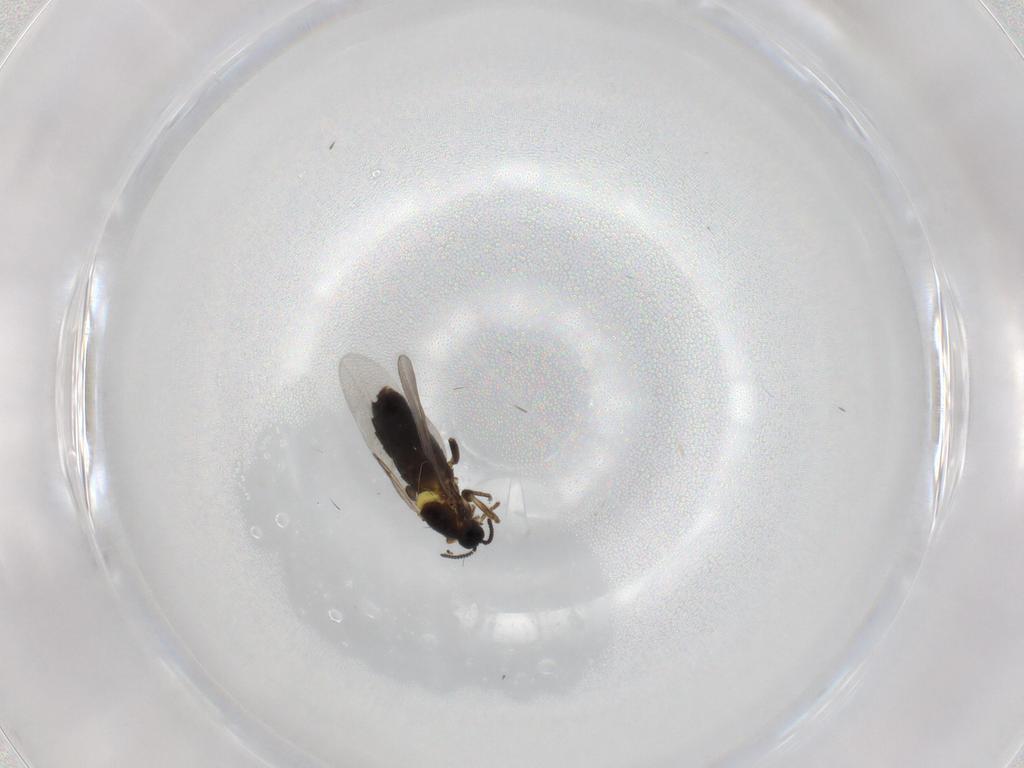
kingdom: Animalia
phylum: Arthropoda
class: Insecta
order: Diptera
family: Scatopsidae
